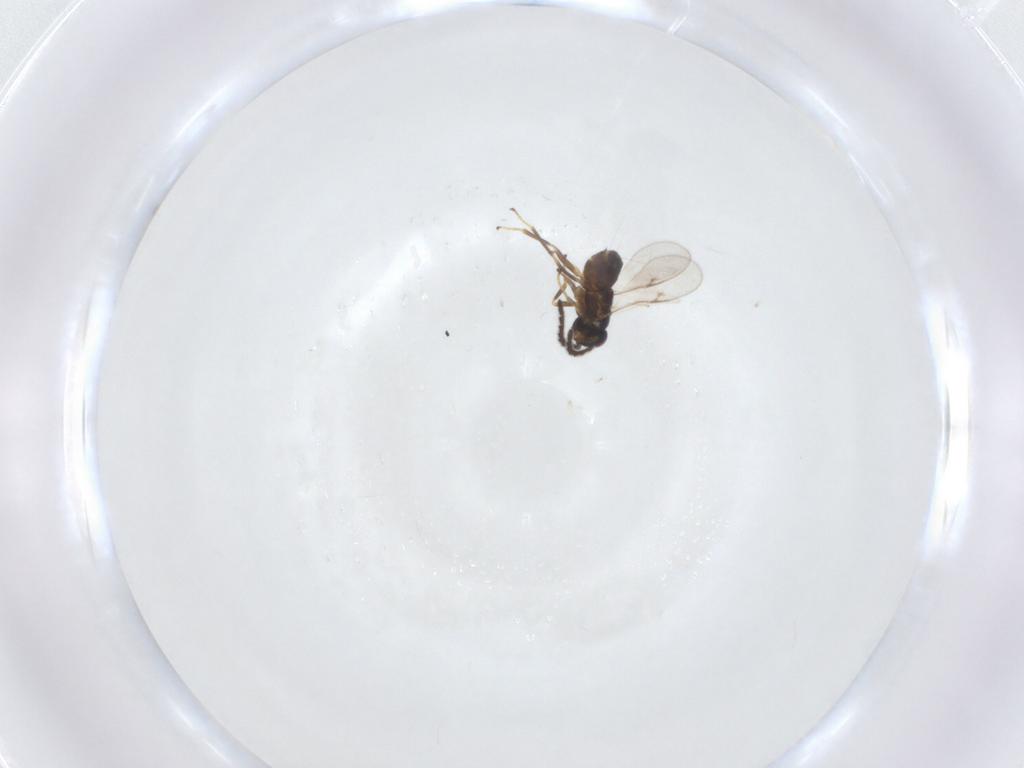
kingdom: Animalia
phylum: Arthropoda
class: Insecta
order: Hymenoptera
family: Encyrtidae
